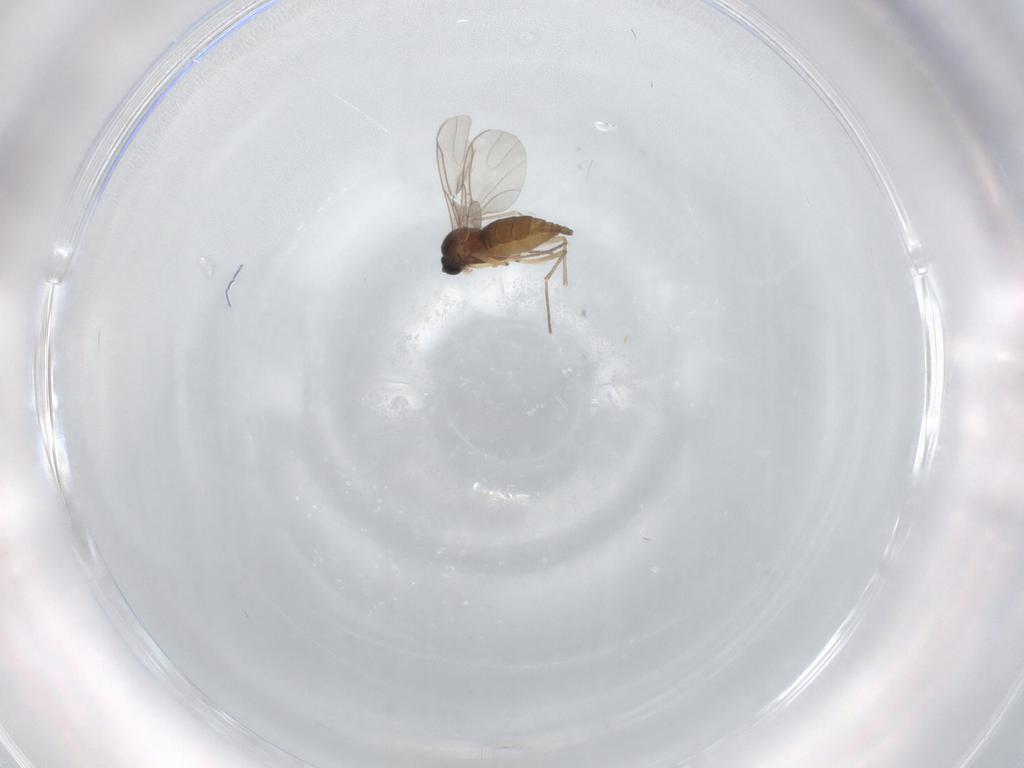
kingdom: Animalia
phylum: Arthropoda
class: Insecta
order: Diptera
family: Sciaridae
